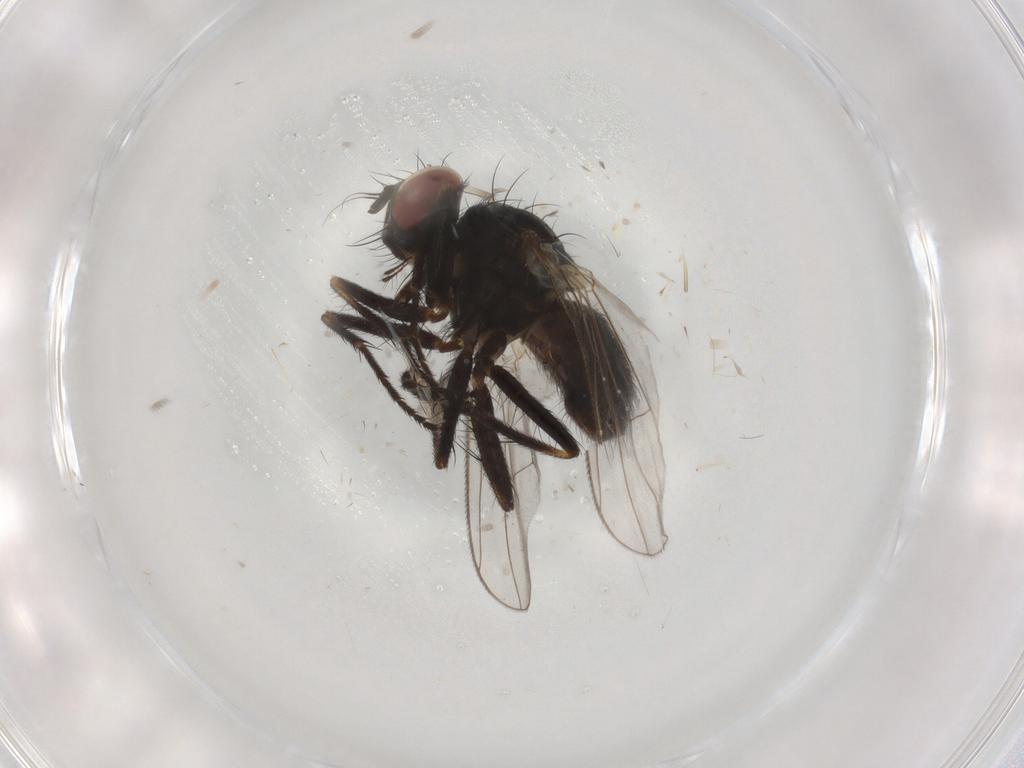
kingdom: Animalia
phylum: Arthropoda
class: Insecta
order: Diptera
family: Muscidae
